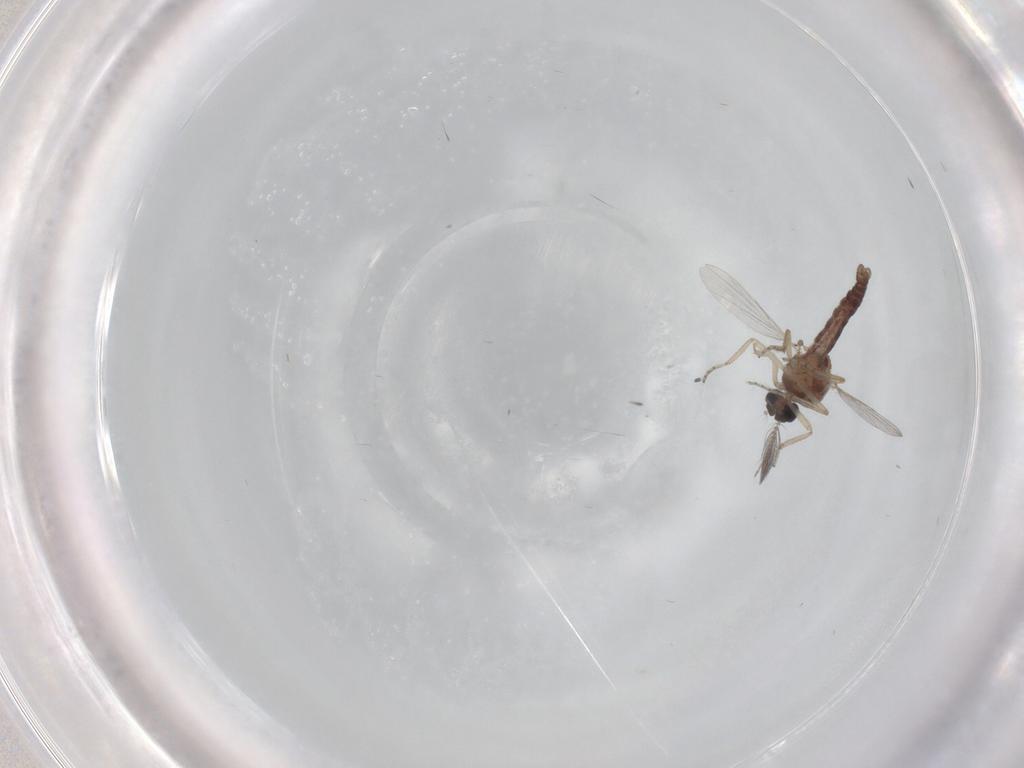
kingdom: Animalia
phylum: Arthropoda
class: Insecta
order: Diptera
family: Ceratopogonidae
